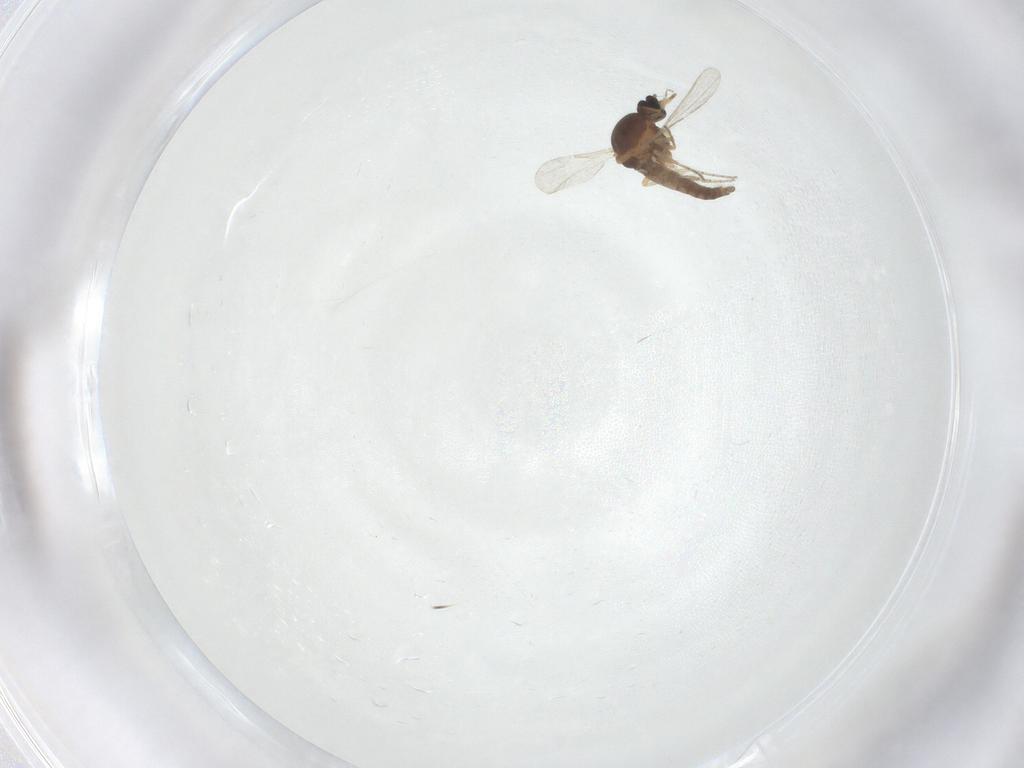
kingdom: Animalia
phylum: Arthropoda
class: Insecta
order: Diptera
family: Ceratopogonidae
